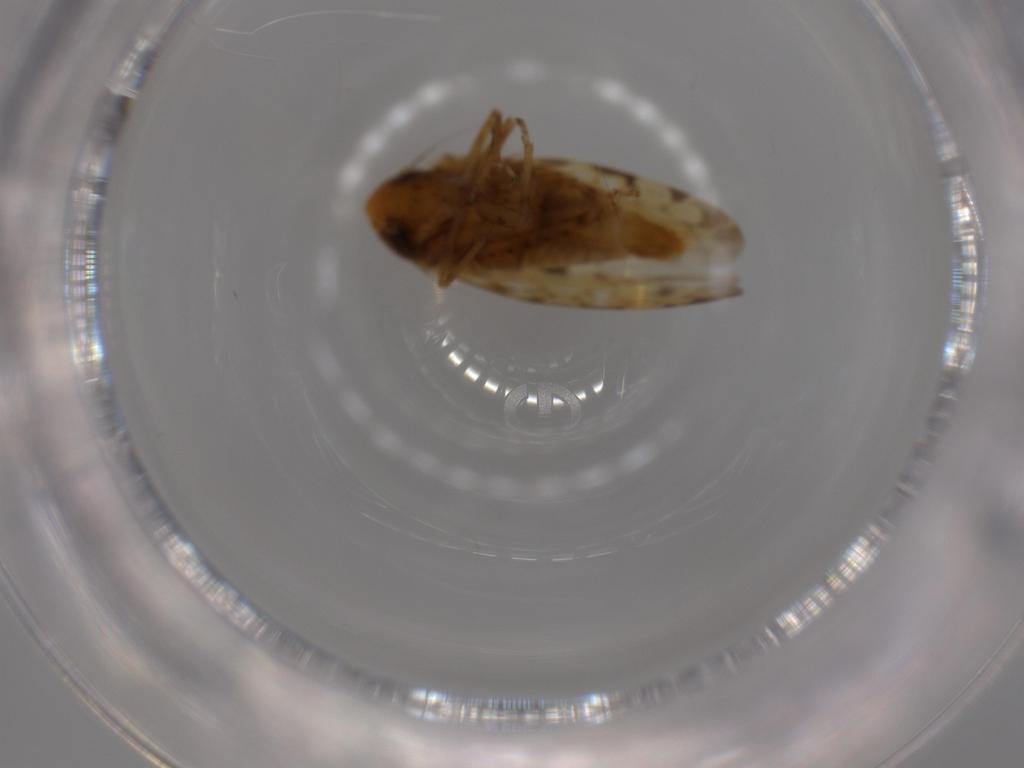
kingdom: Animalia
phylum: Arthropoda
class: Insecta
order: Hemiptera
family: Cicadellidae
